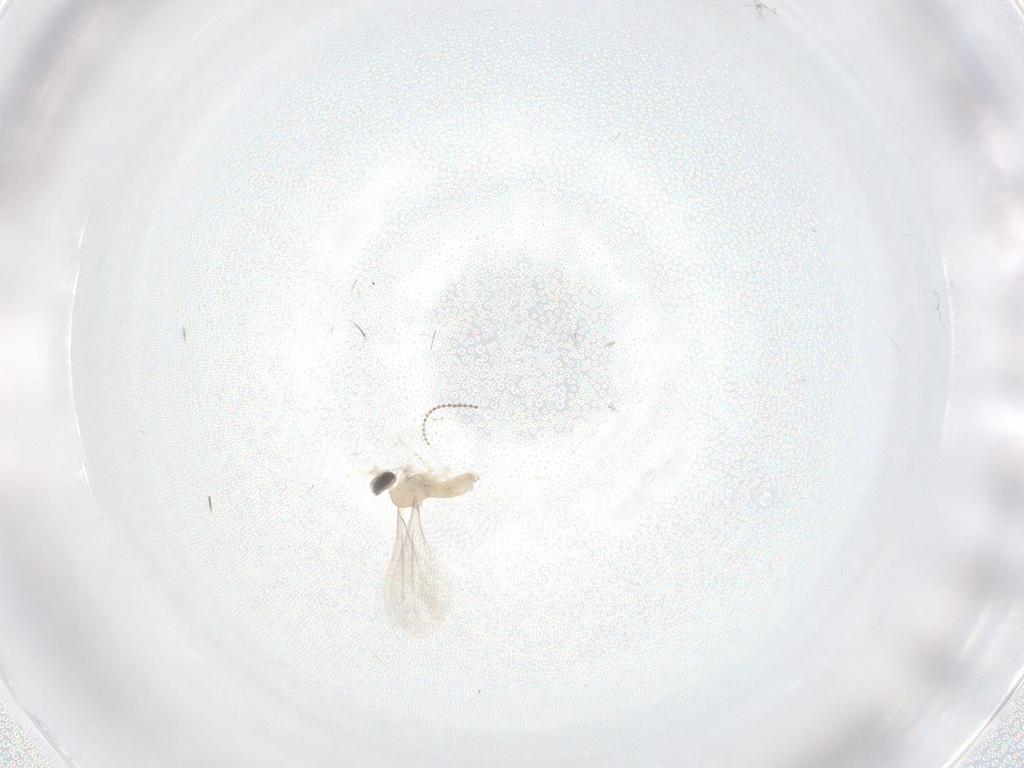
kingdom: Animalia
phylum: Arthropoda
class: Insecta
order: Diptera
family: Cecidomyiidae
